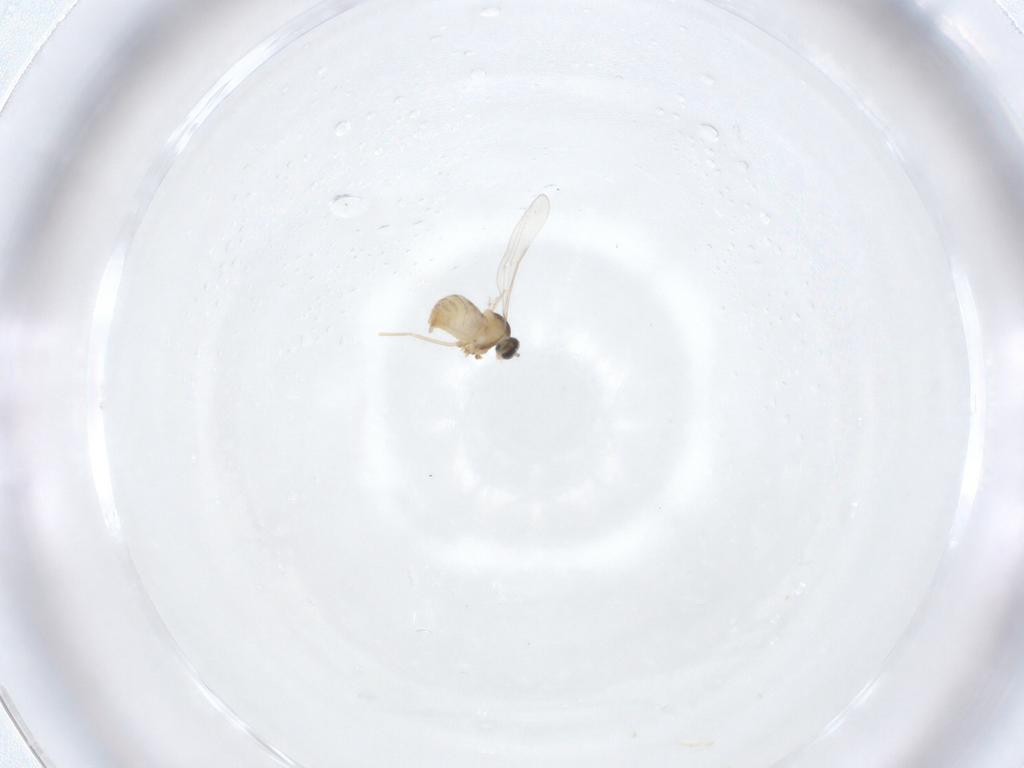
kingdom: Animalia
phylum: Arthropoda
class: Insecta
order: Diptera
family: Cecidomyiidae
